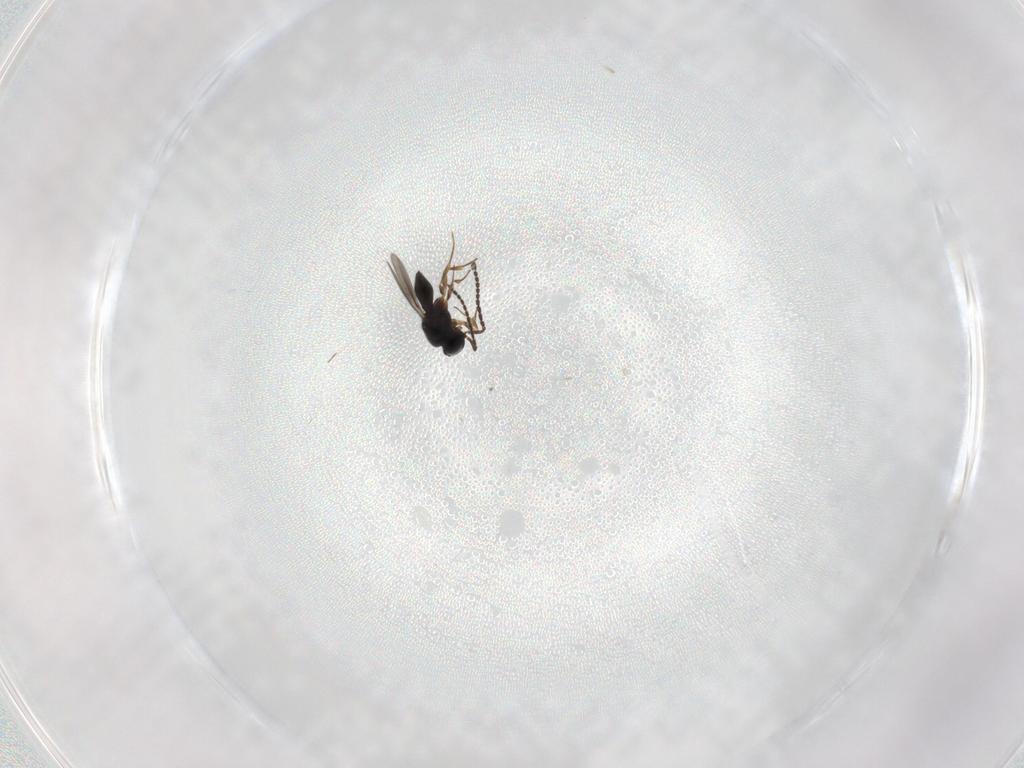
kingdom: Animalia
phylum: Arthropoda
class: Insecta
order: Hymenoptera
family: Scelionidae
